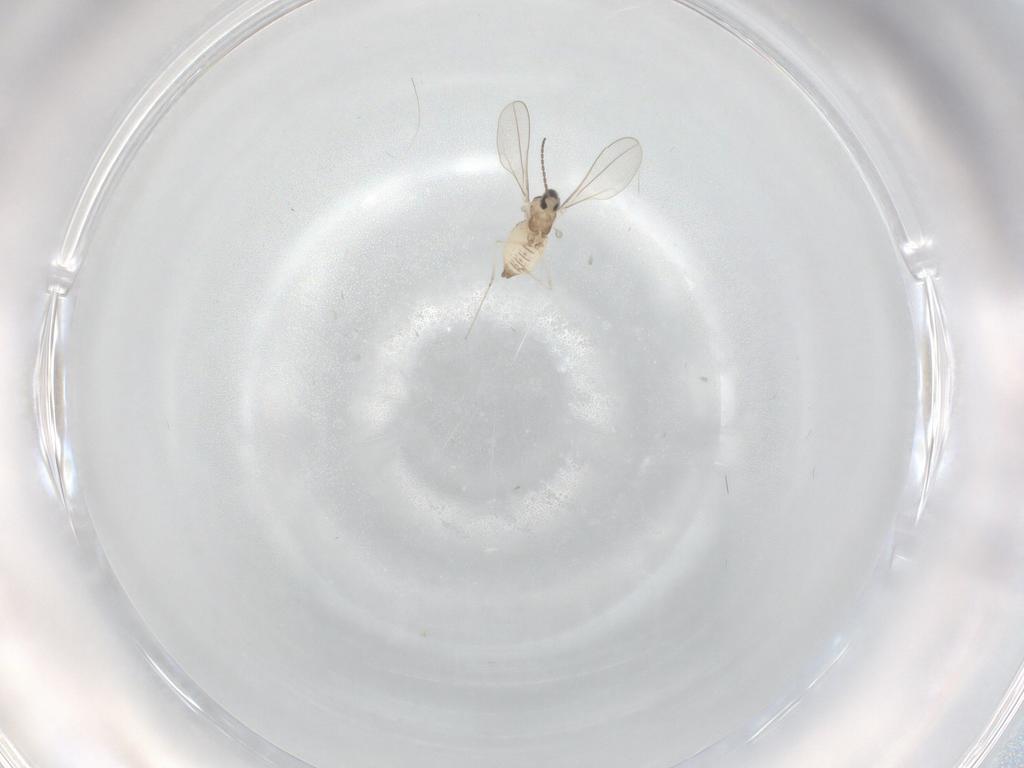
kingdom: Animalia
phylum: Arthropoda
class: Insecta
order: Diptera
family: Cecidomyiidae
